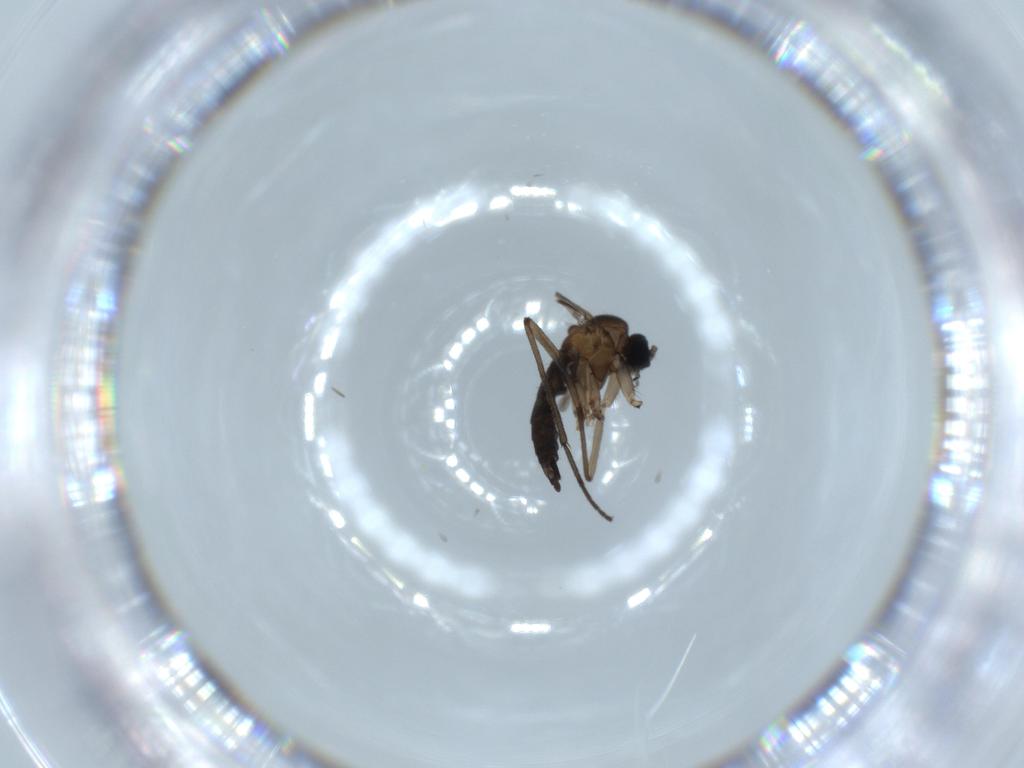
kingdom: Animalia
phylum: Arthropoda
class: Insecta
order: Diptera
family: Sciaridae
